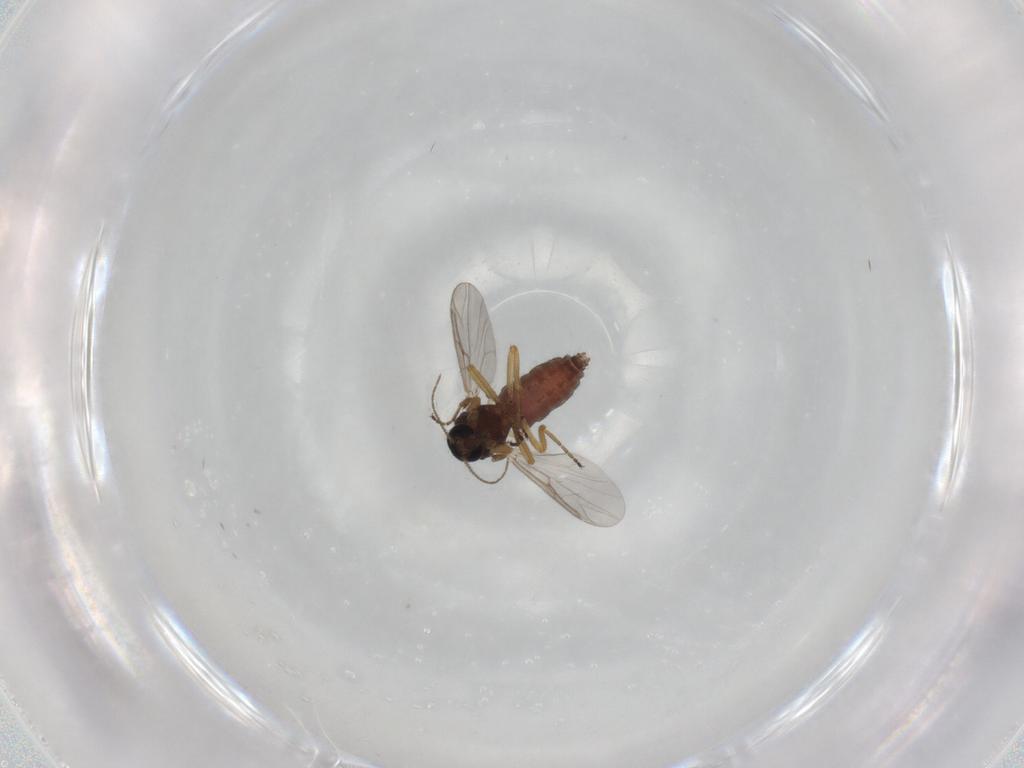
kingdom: Animalia
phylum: Arthropoda
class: Insecta
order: Diptera
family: Ceratopogonidae
